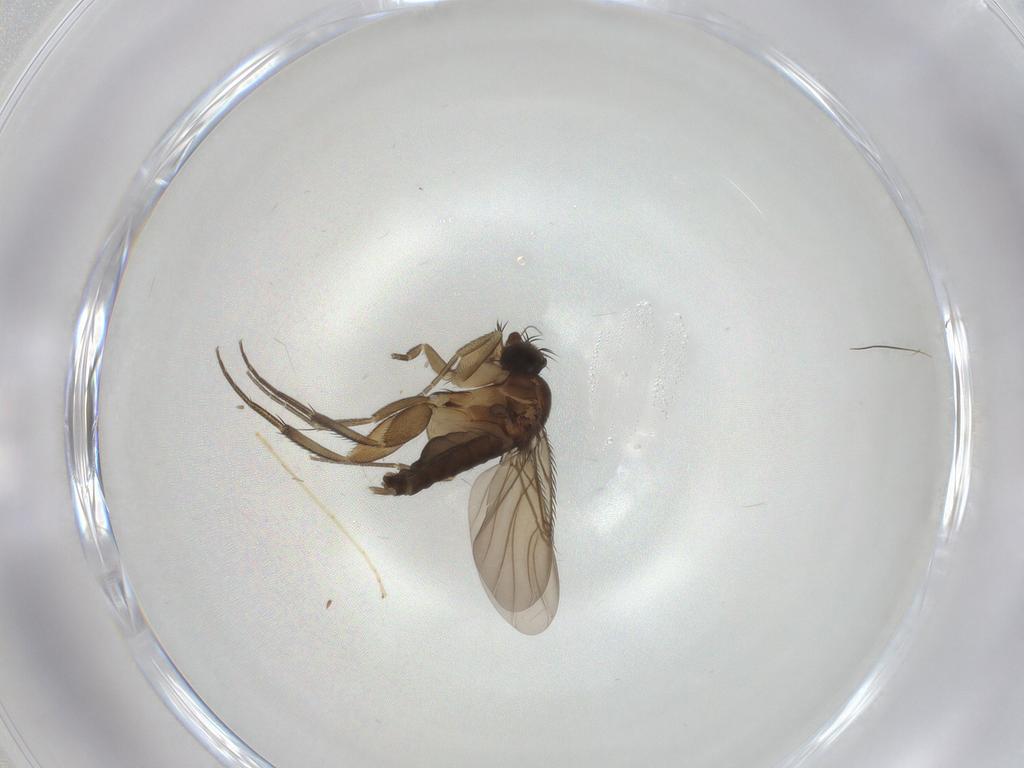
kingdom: Animalia
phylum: Arthropoda
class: Insecta
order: Diptera
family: Phoridae
